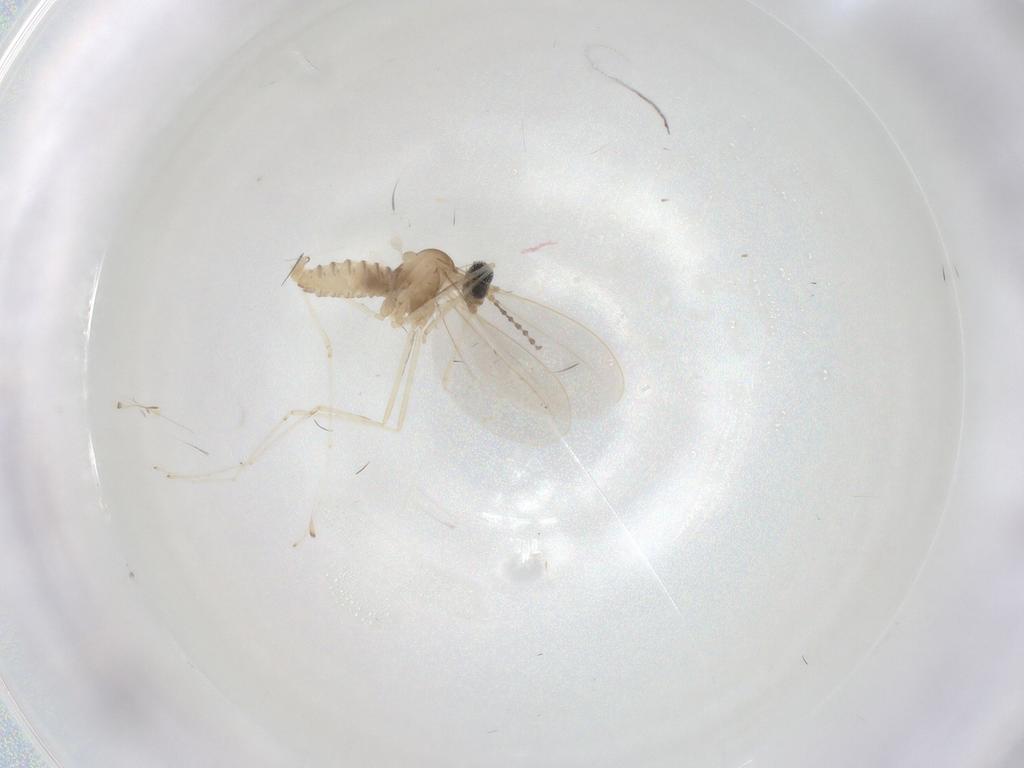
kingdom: Animalia
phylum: Arthropoda
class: Insecta
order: Diptera
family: Cecidomyiidae
